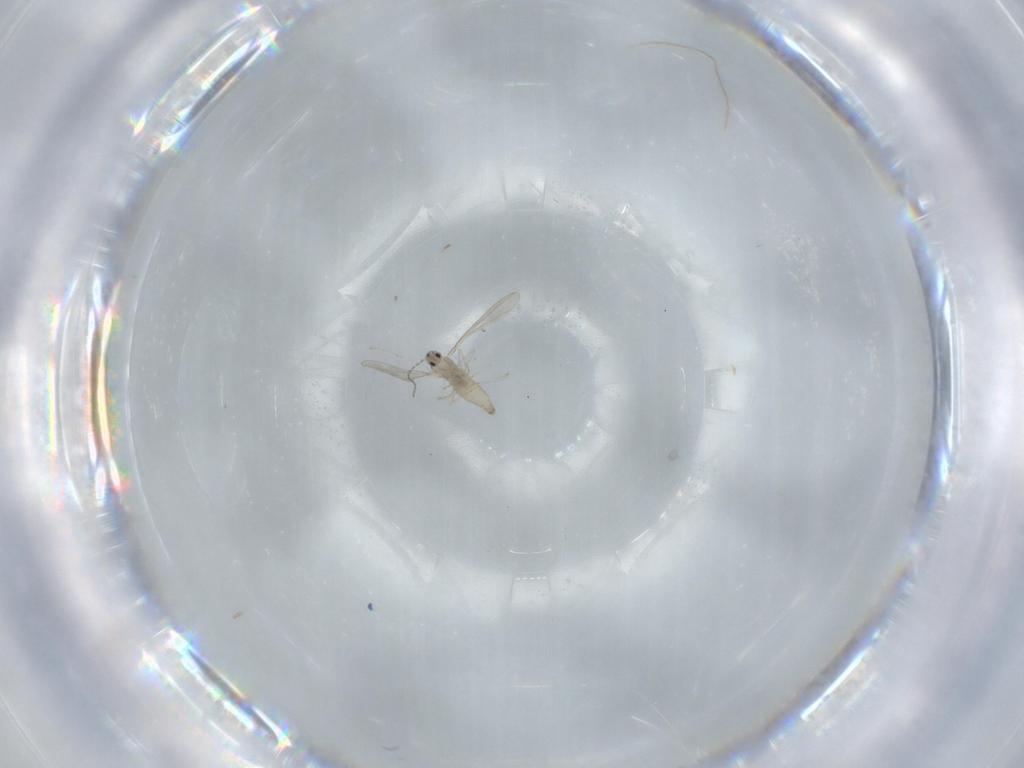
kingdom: Animalia
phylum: Arthropoda
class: Insecta
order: Diptera
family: Cecidomyiidae
